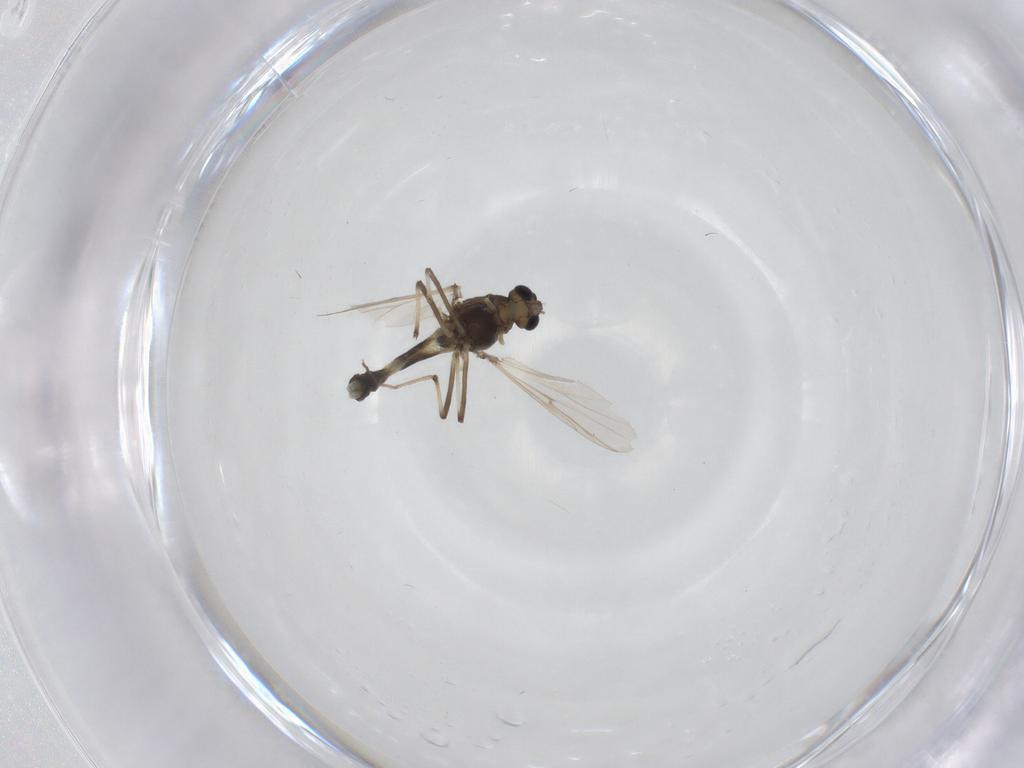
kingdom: Animalia
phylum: Arthropoda
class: Insecta
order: Diptera
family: Chironomidae
